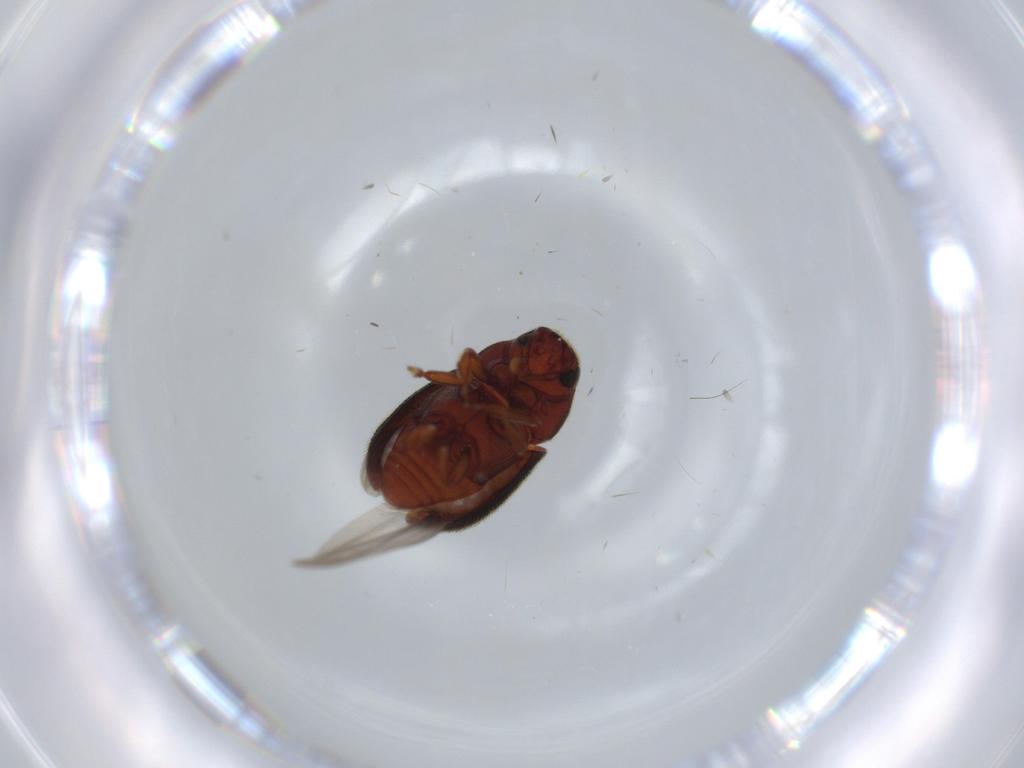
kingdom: Animalia
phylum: Arthropoda
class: Insecta
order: Coleoptera
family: Curculionidae
